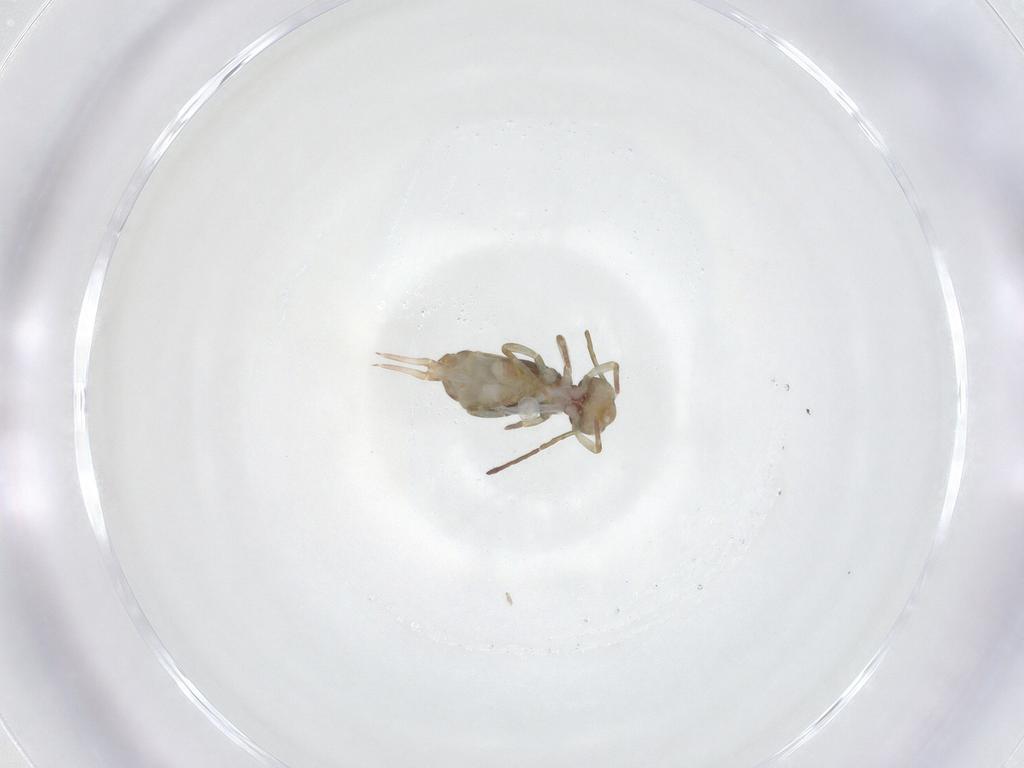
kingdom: Animalia
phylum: Arthropoda
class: Collembola
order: Symphypleona
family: Dicyrtomidae
